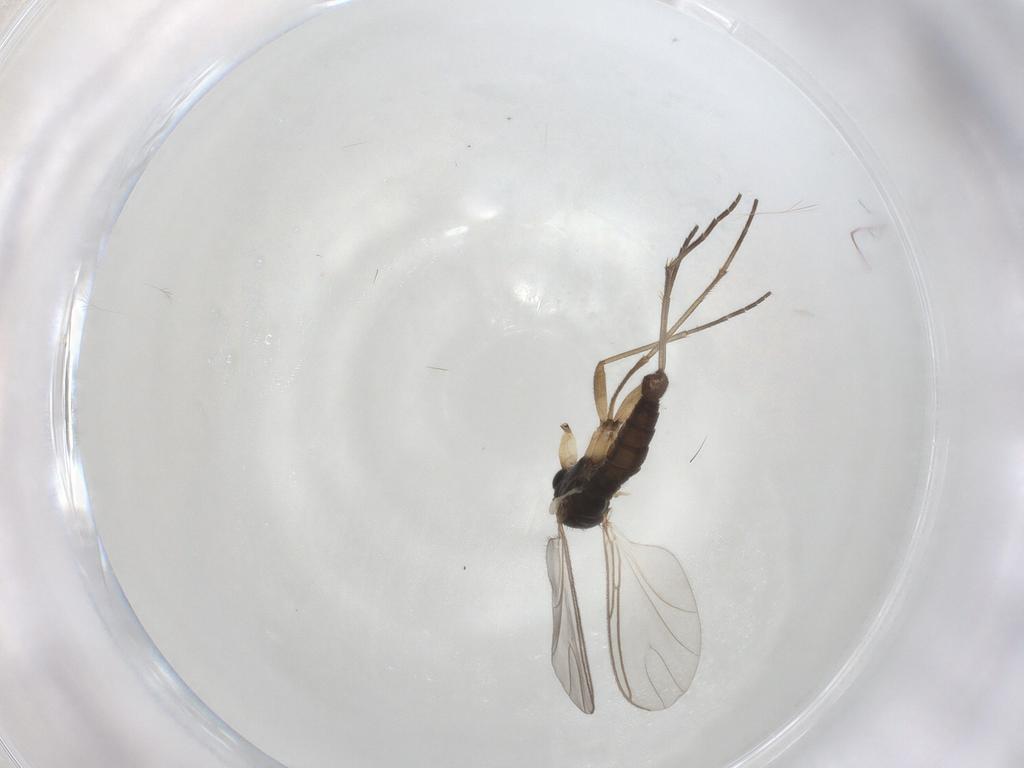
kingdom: Animalia
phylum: Arthropoda
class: Insecta
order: Diptera
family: Sciaridae
